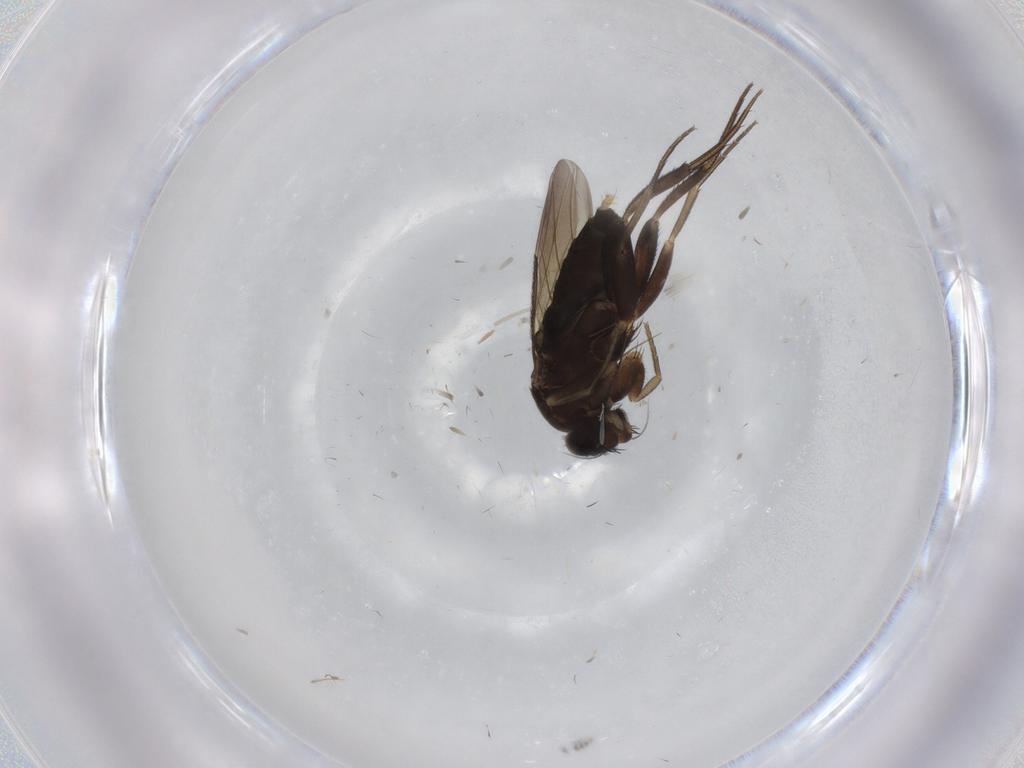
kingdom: Animalia
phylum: Arthropoda
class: Insecta
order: Diptera
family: Phoridae
